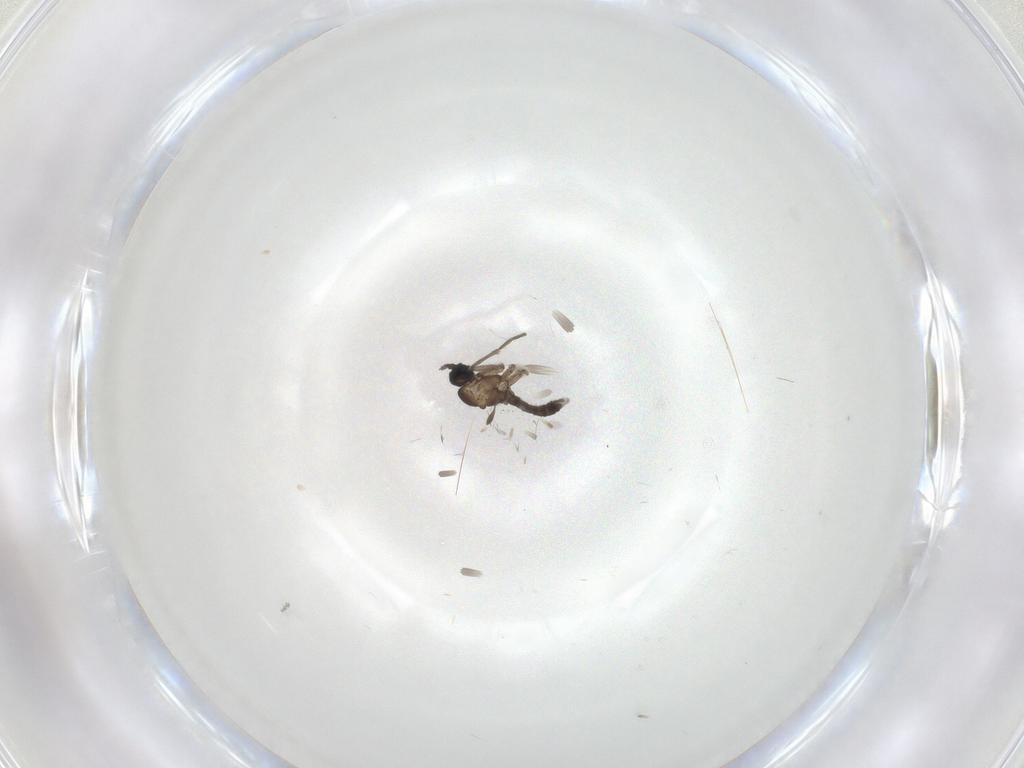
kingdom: Animalia
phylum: Arthropoda
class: Insecta
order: Diptera
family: Sciaridae
